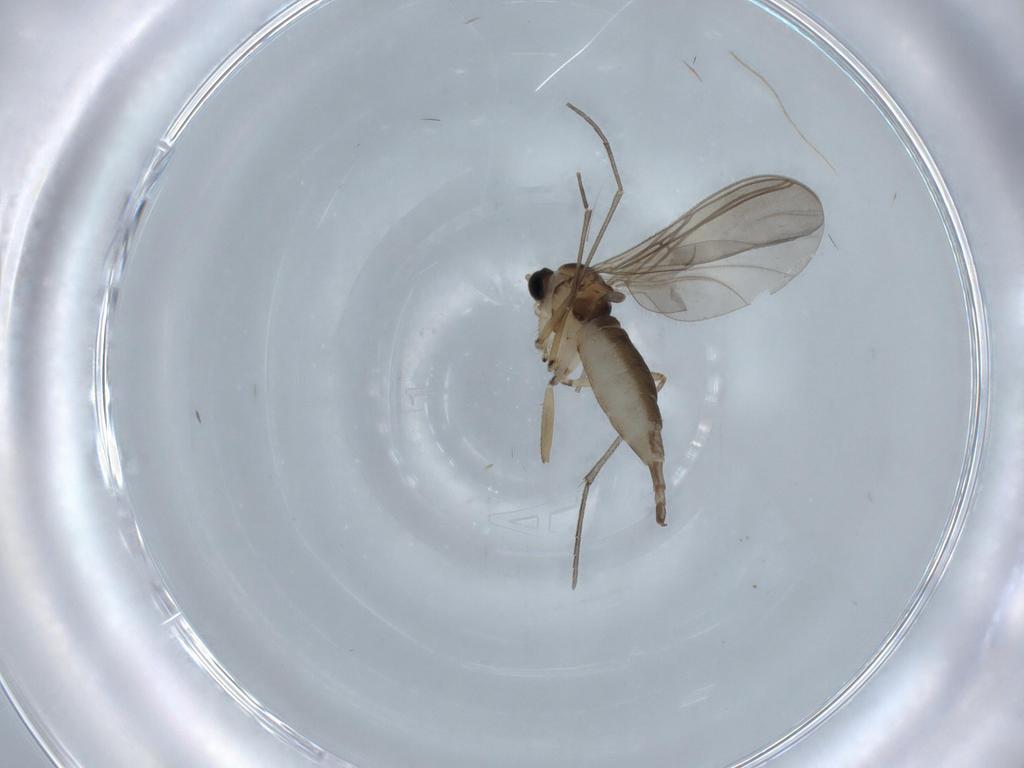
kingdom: Animalia
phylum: Arthropoda
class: Insecta
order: Diptera
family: Sciaridae
